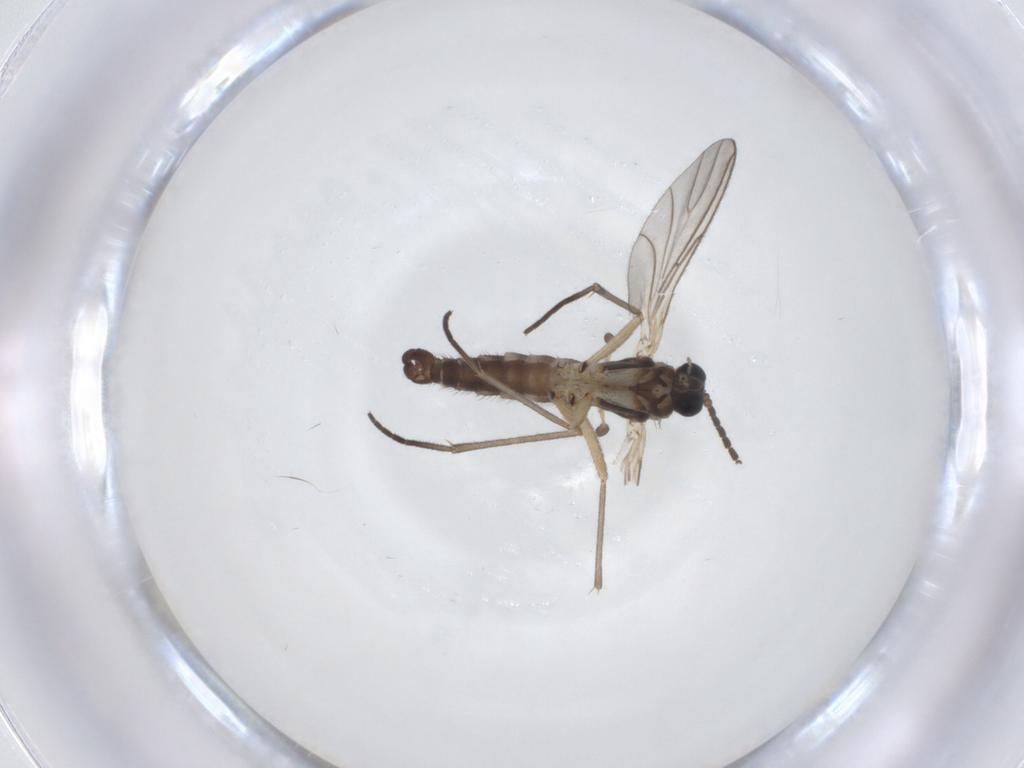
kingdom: Animalia
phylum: Arthropoda
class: Insecta
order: Diptera
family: Sciaridae
